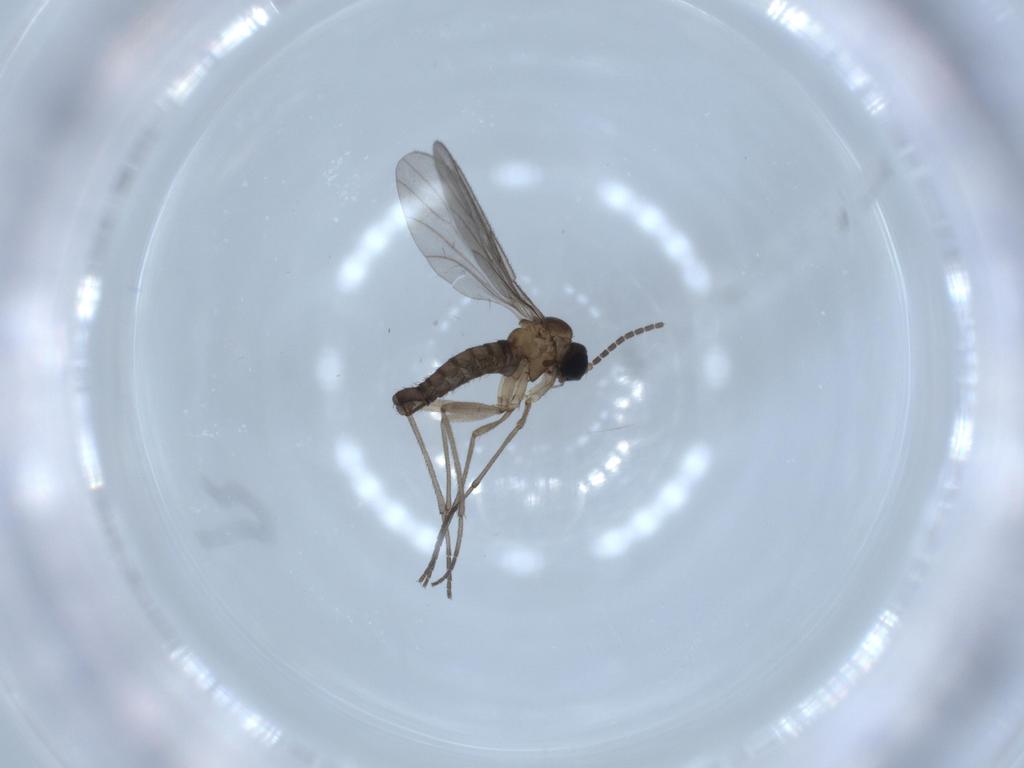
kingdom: Animalia
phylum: Arthropoda
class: Insecta
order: Diptera
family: Sciaridae
